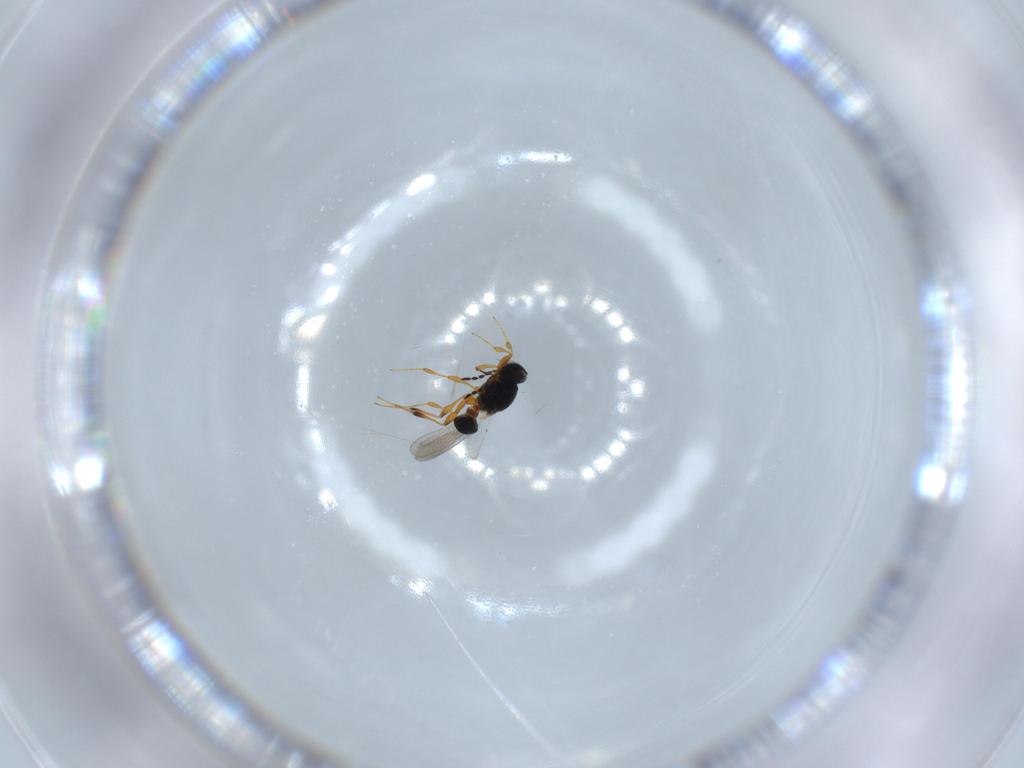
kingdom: Animalia
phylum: Arthropoda
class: Insecta
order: Hymenoptera
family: Platygastridae
